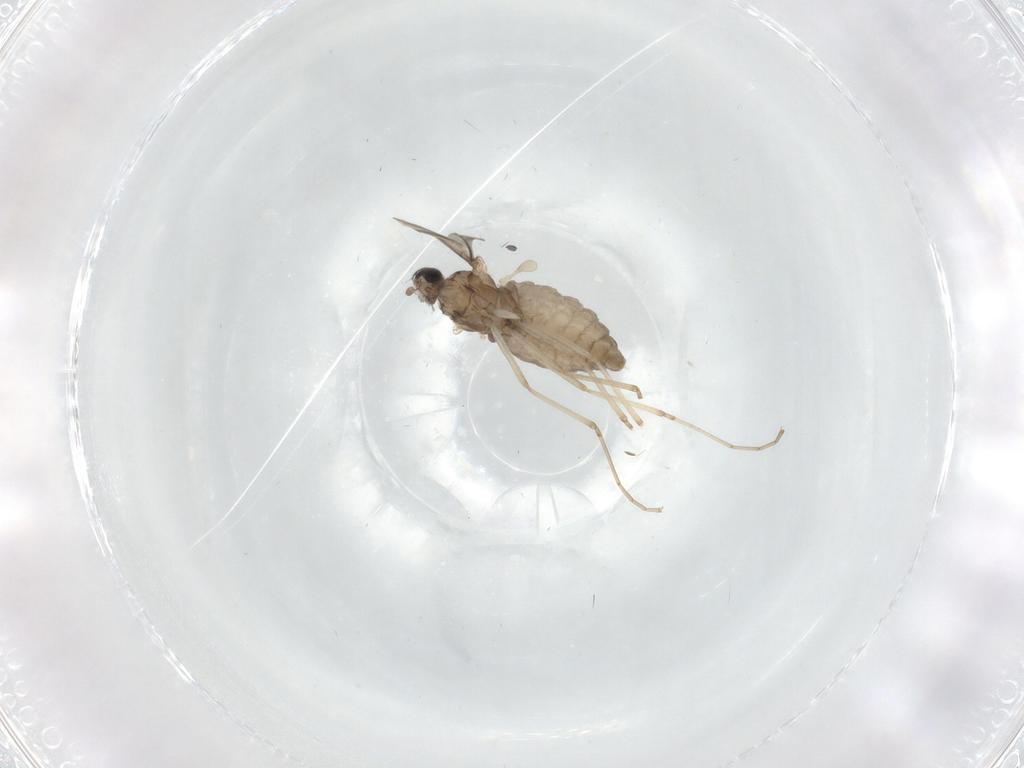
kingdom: Animalia
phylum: Arthropoda
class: Insecta
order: Diptera
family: Cecidomyiidae
